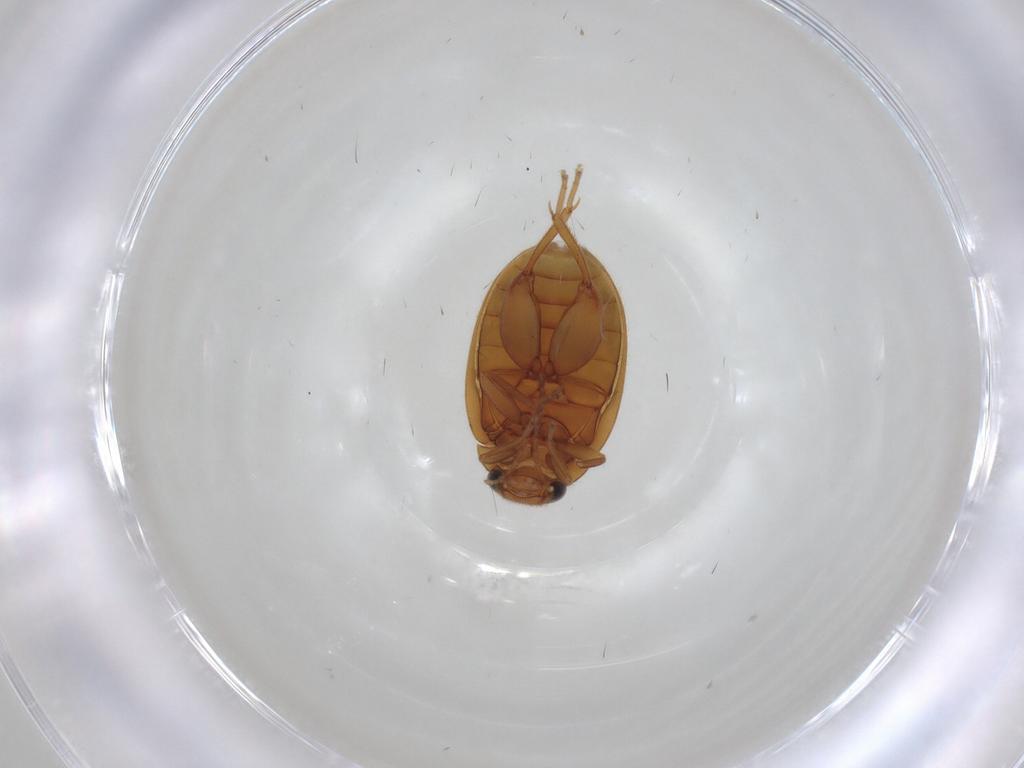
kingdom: Animalia
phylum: Arthropoda
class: Insecta
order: Coleoptera
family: Scirtidae
